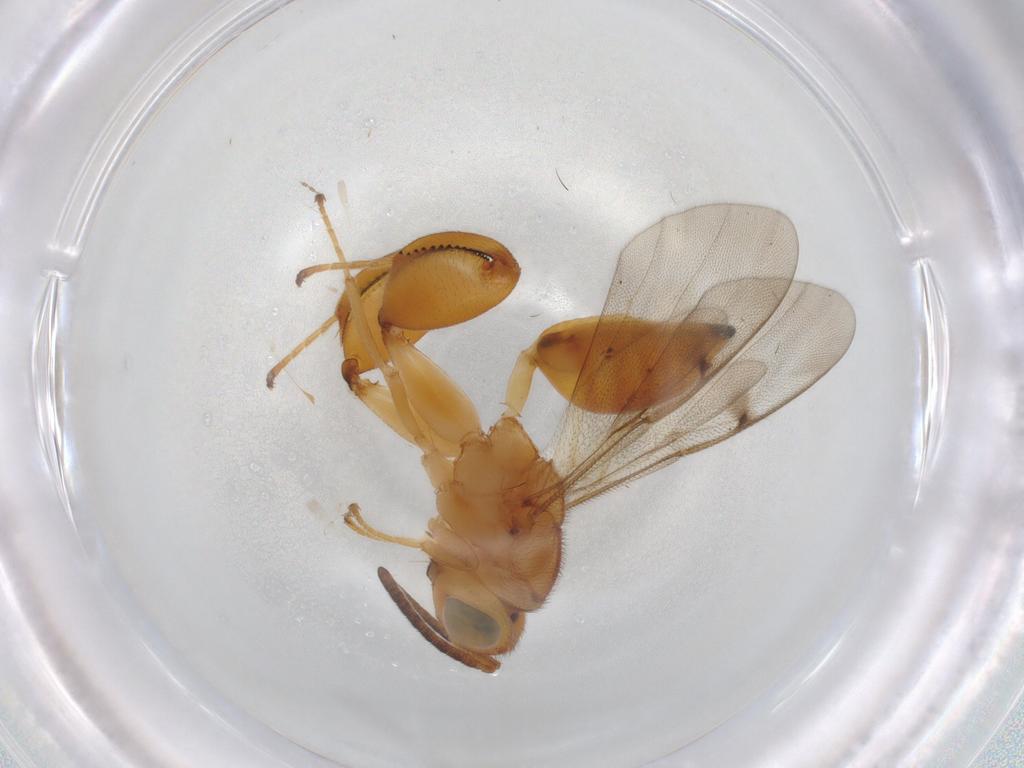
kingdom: Animalia
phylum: Arthropoda
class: Insecta
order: Hymenoptera
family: Chalcididae
